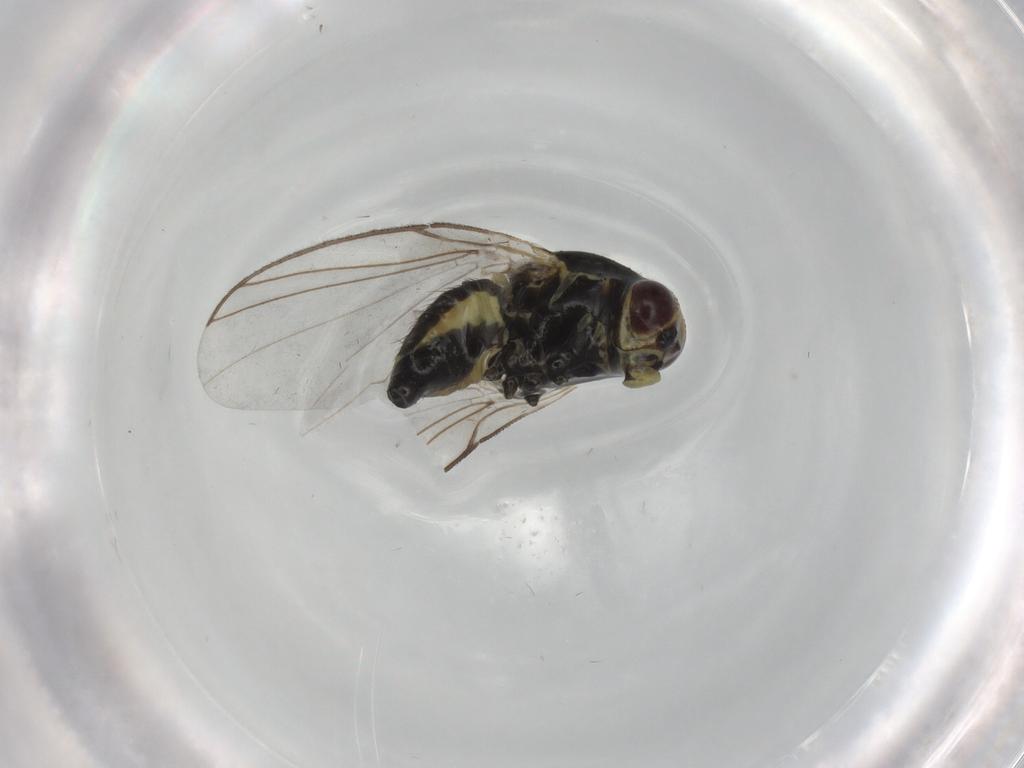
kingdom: Animalia
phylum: Arthropoda
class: Insecta
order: Diptera
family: Agromyzidae
